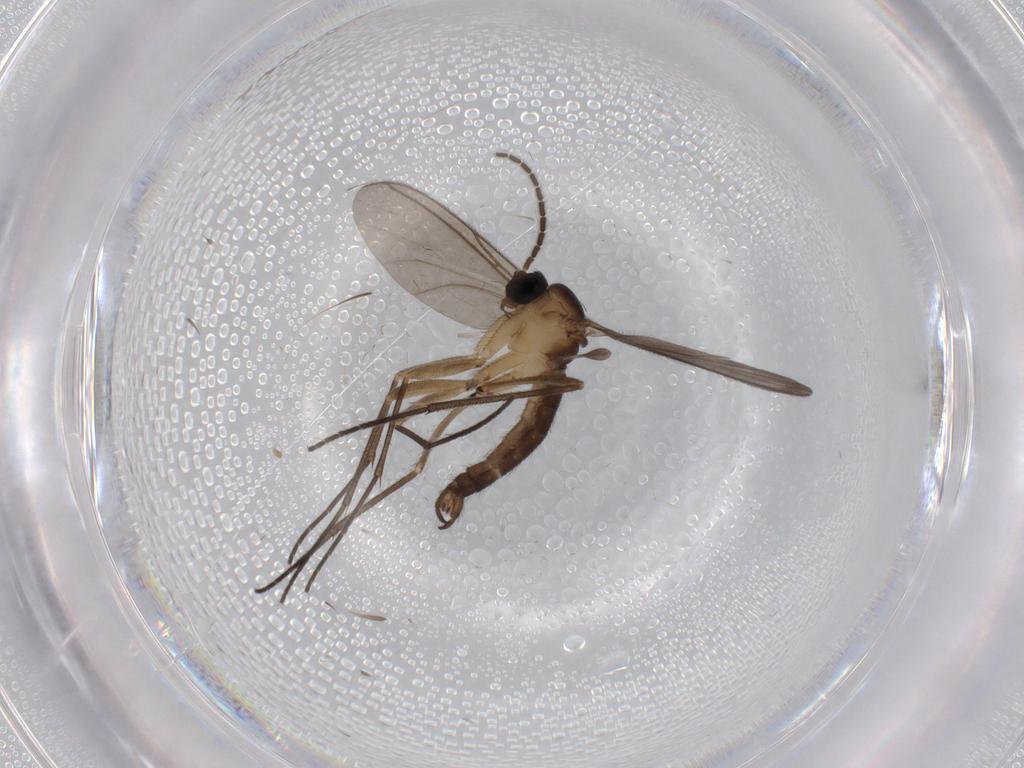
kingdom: Animalia
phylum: Arthropoda
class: Insecta
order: Diptera
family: Sciaridae
